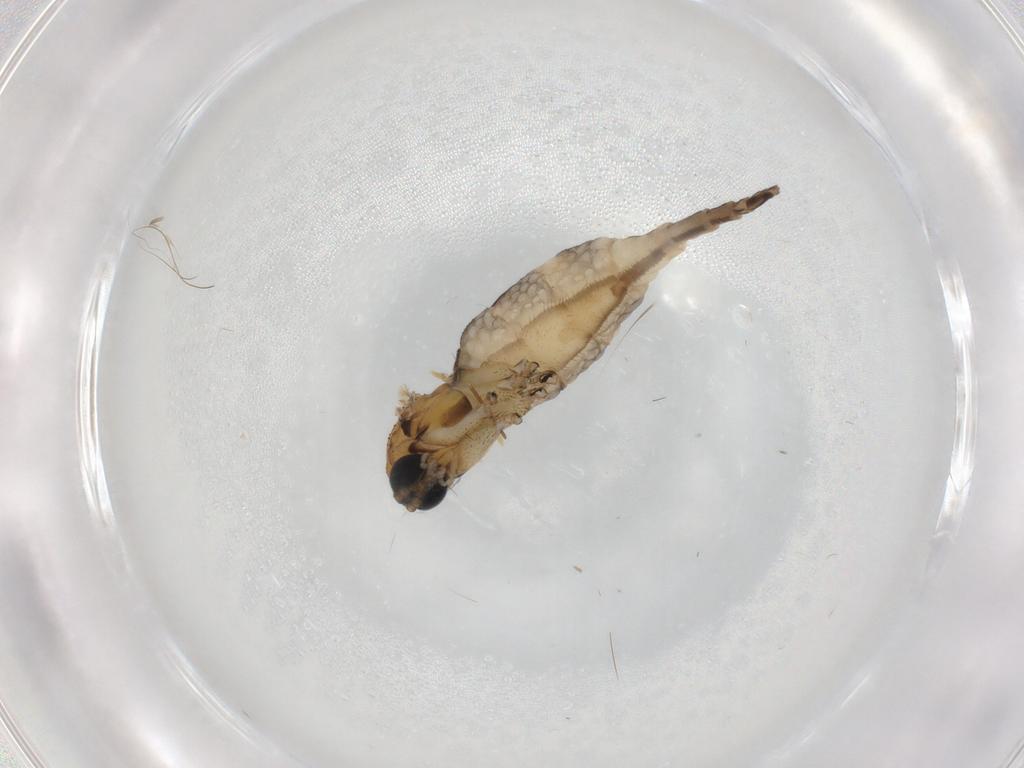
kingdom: Animalia
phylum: Arthropoda
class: Insecta
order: Diptera
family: Sciaridae
